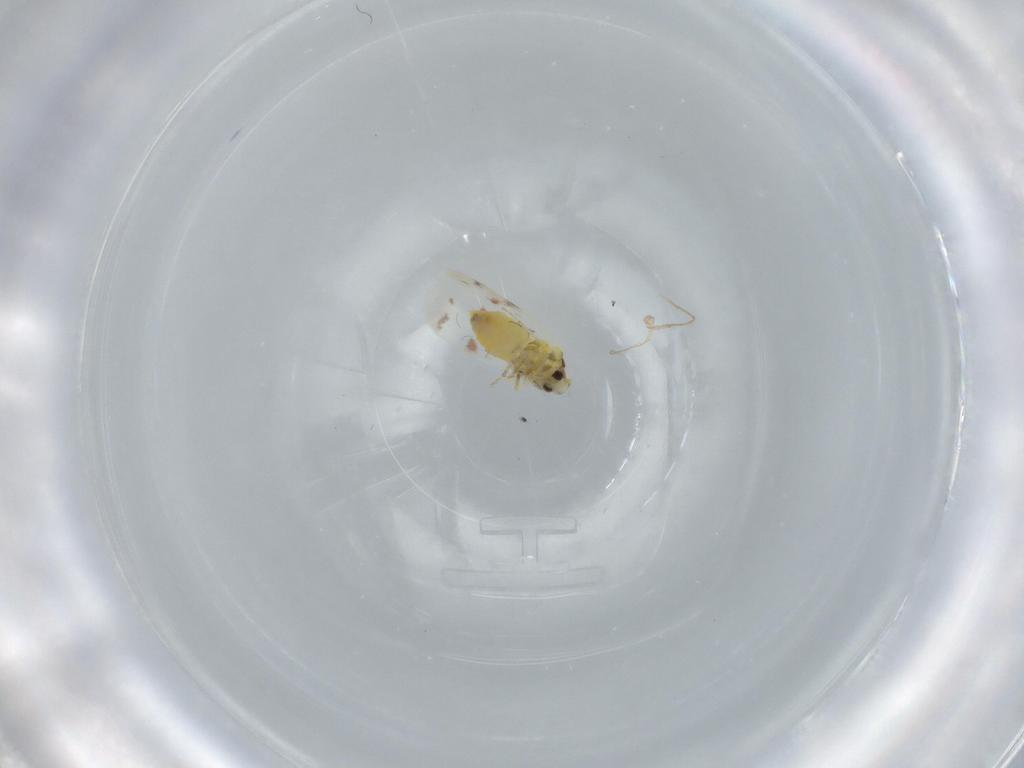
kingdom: Animalia
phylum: Arthropoda
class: Insecta
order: Hemiptera
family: Aleyrodidae
